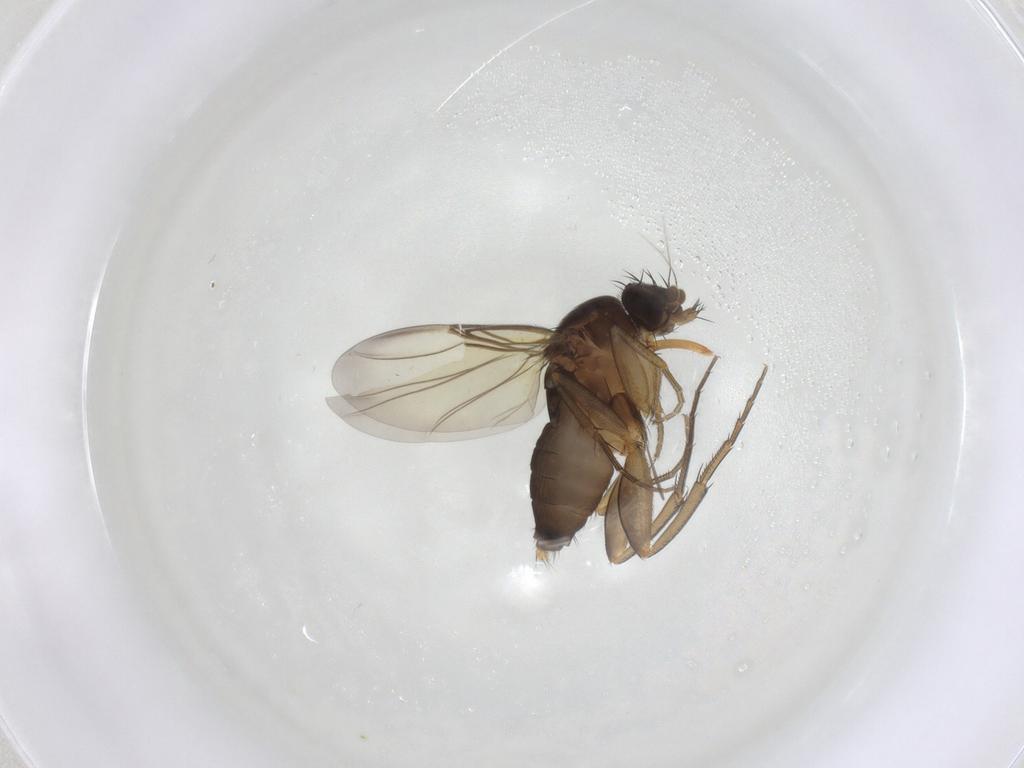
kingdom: Animalia
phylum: Arthropoda
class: Insecta
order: Diptera
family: Phoridae
